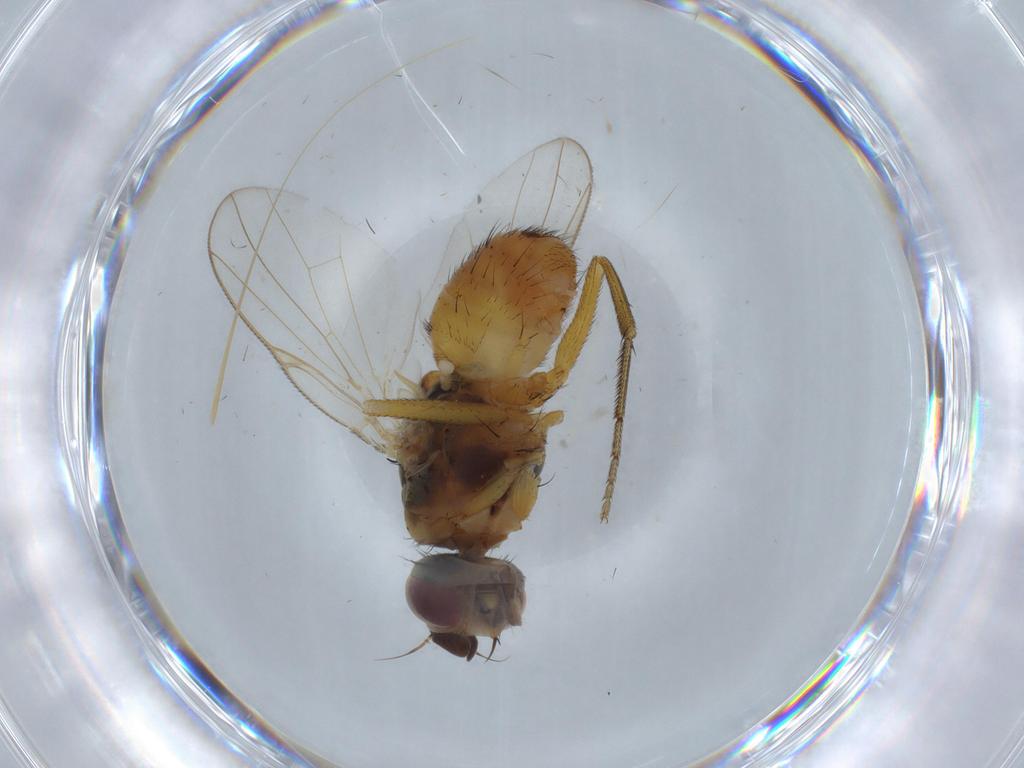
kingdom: Animalia
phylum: Arthropoda
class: Insecta
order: Diptera
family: Muscidae
